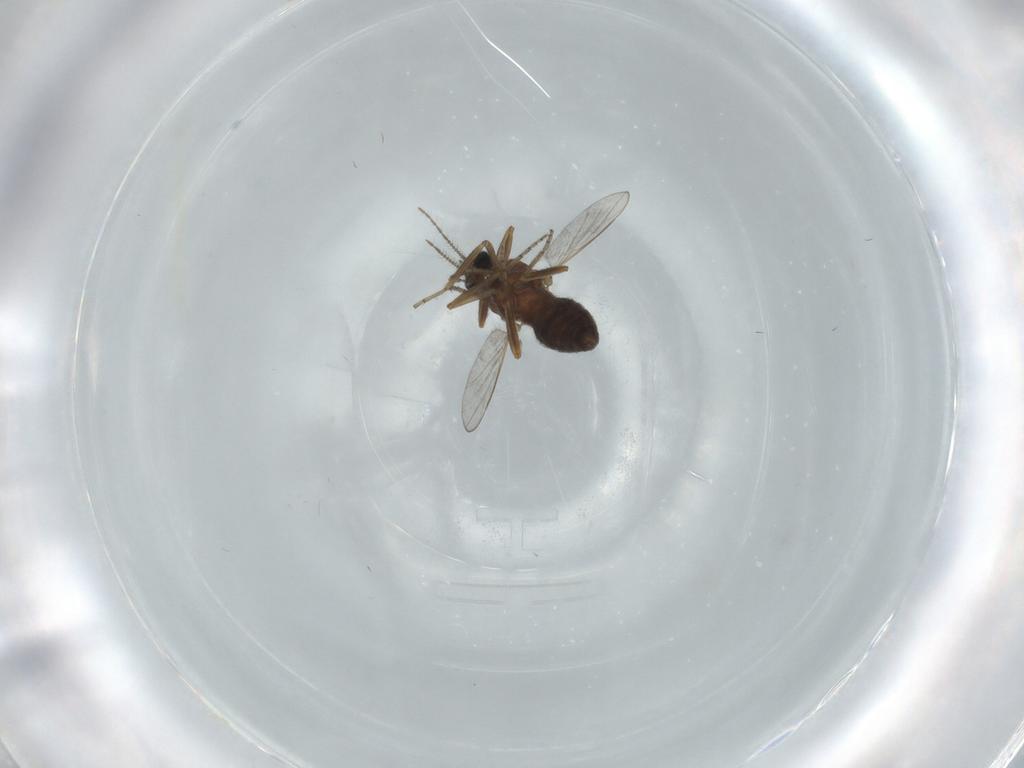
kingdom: Animalia
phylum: Arthropoda
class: Insecta
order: Diptera
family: Ceratopogonidae
